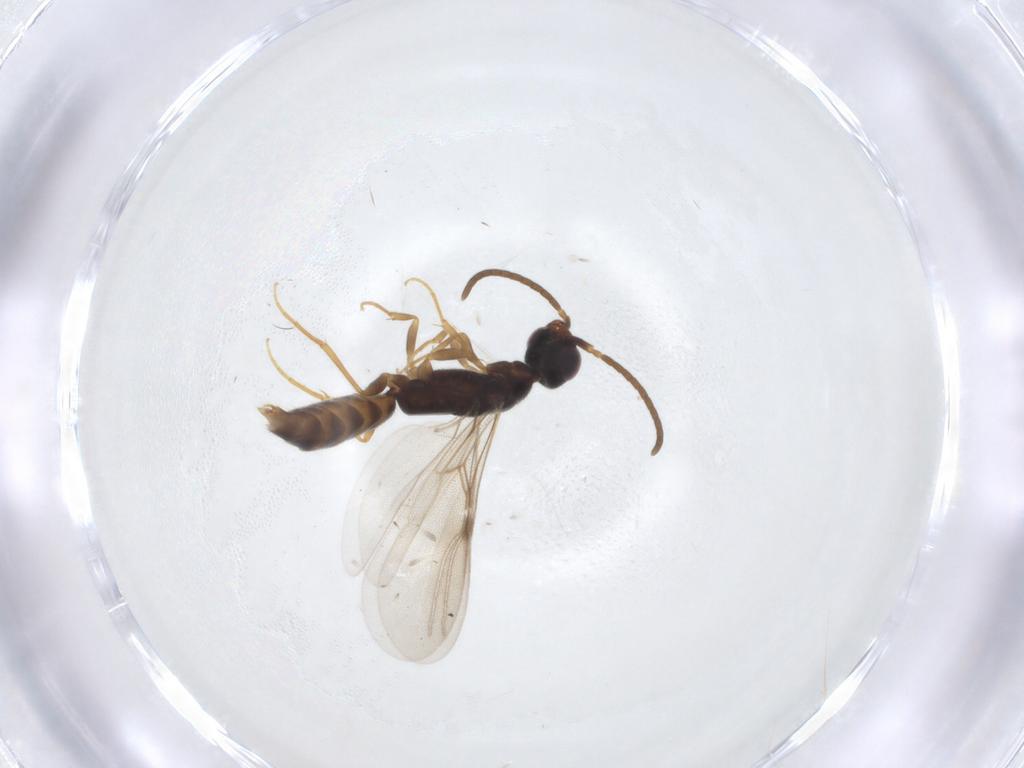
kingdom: Animalia
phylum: Arthropoda
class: Insecta
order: Hymenoptera
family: Bethylidae
